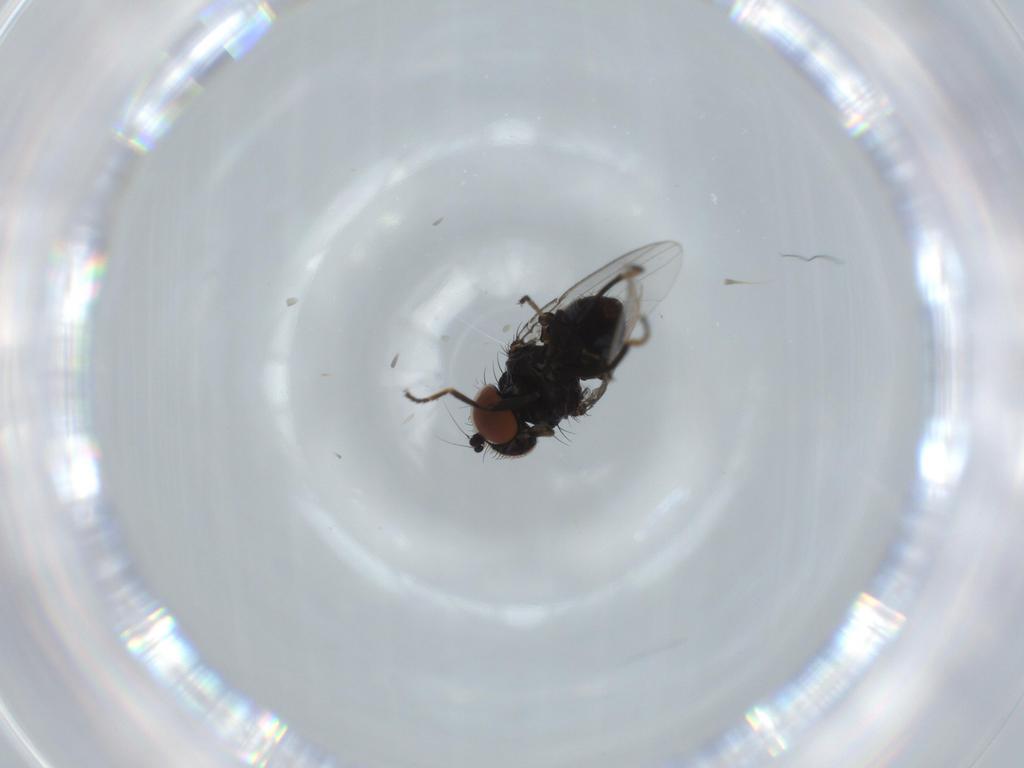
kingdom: Animalia
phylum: Arthropoda
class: Insecta
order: Diptera
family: Milichiidae
